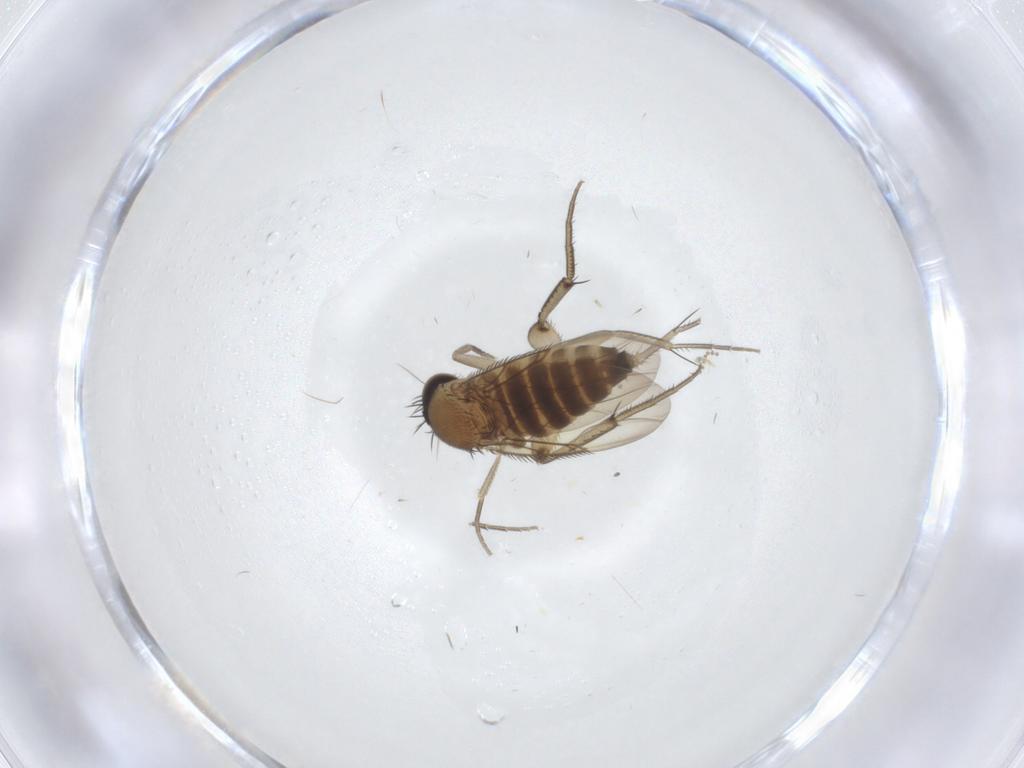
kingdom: Animalia
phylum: Arthropoda
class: Insecta
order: Diptera
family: Phoridae
